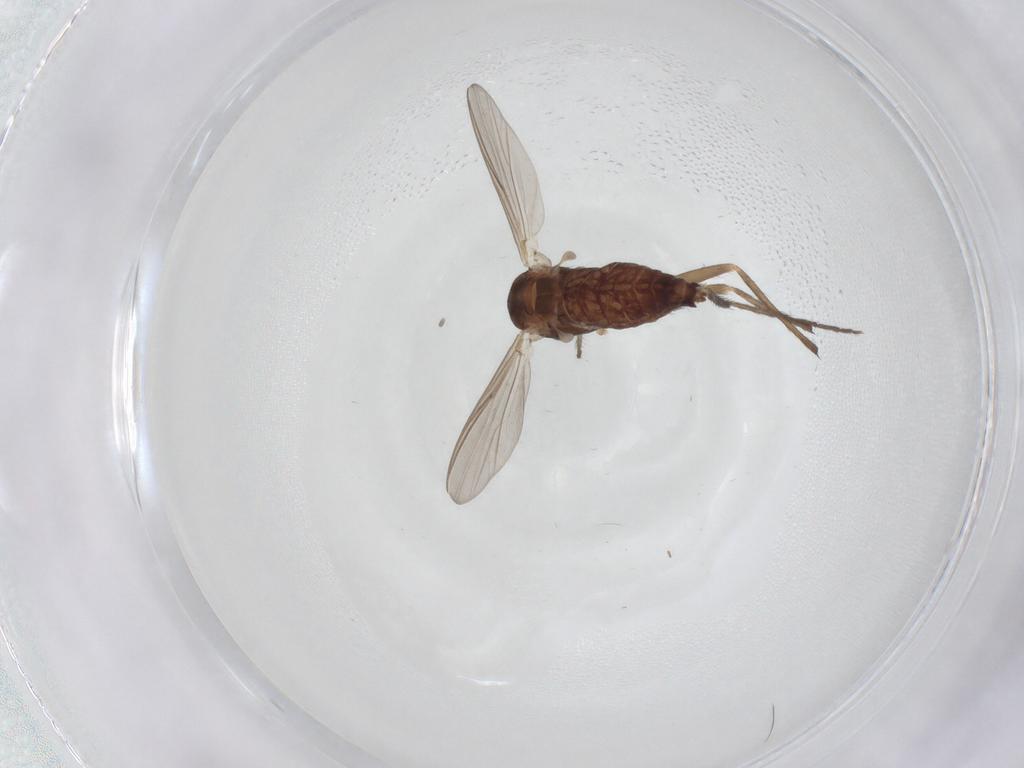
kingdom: Animalia
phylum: Arthropoda
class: Insecta
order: Diptera
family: Chironomidae
